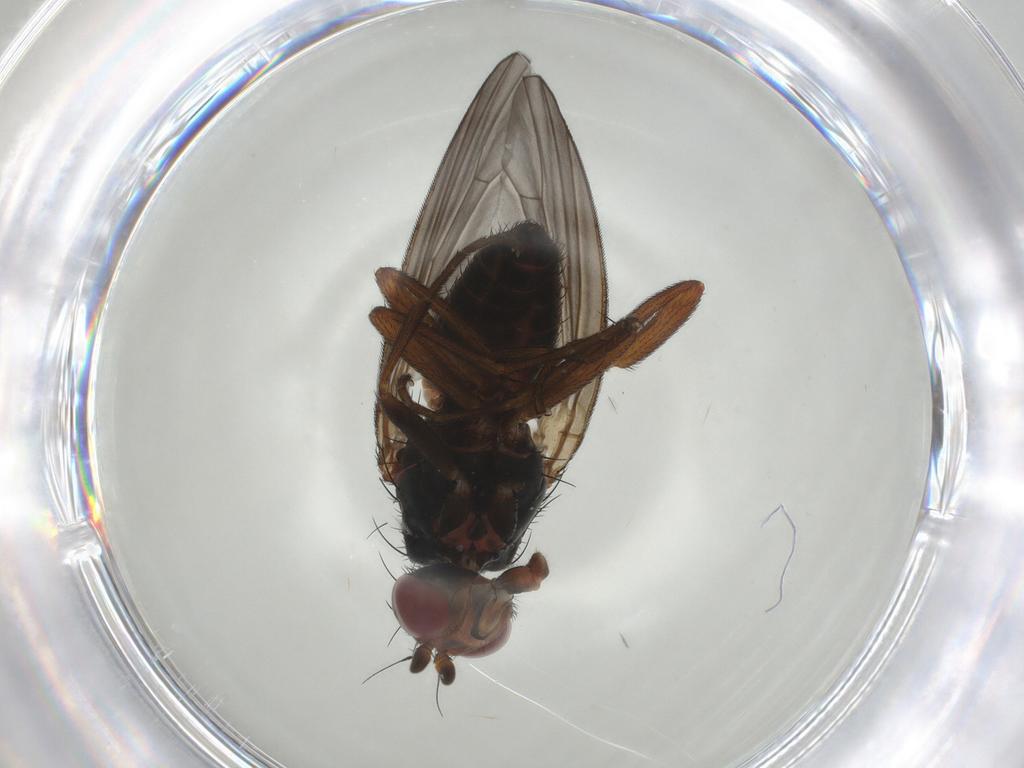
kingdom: Animalia
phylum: Arthropoda
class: Insecta
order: Diptera
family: Heleomyzidae
